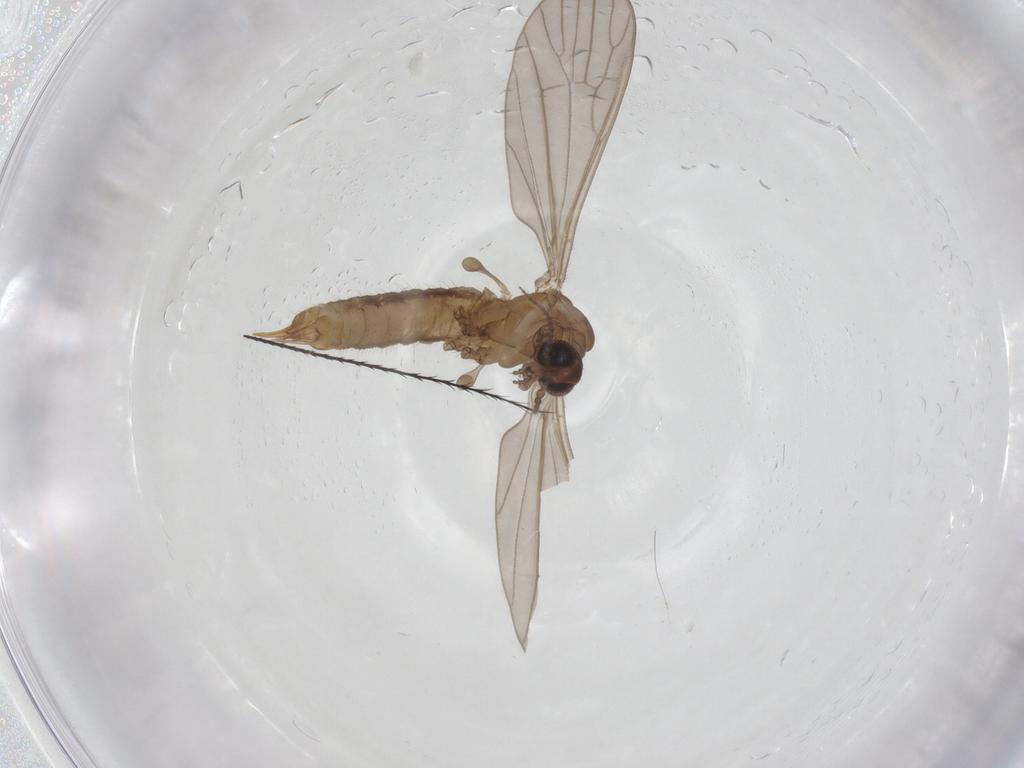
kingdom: Animalia
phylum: Arthropoda
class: Insecta
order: Diptera
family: Limoniidae
